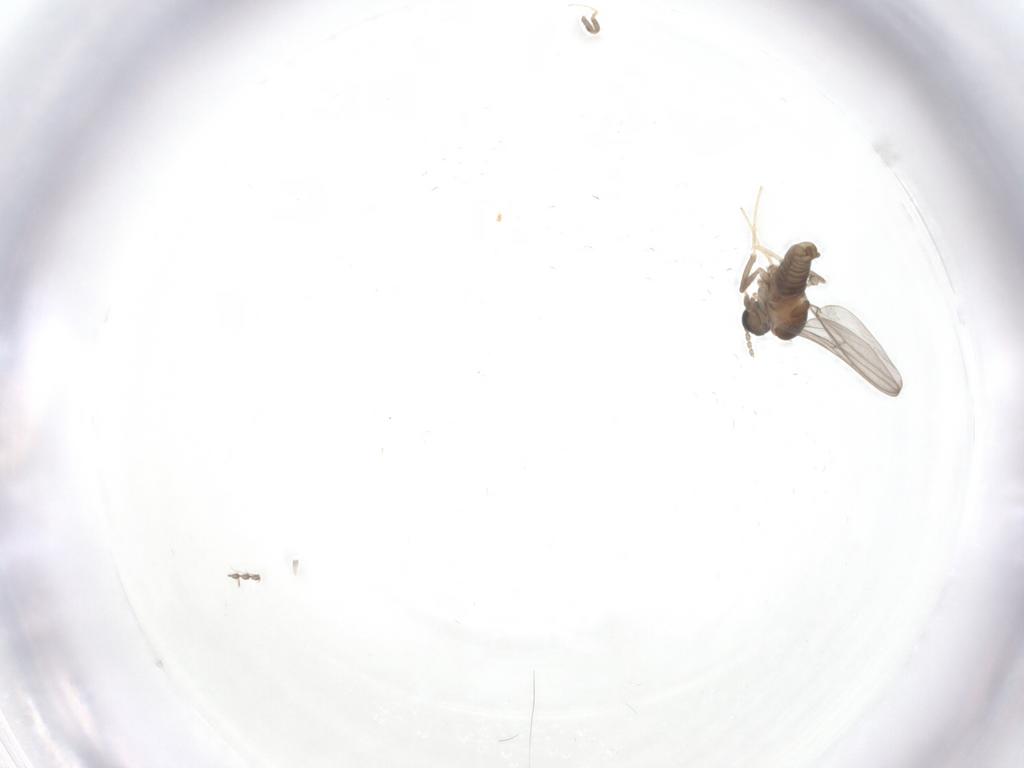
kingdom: Animalia
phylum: Arthropoda
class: Insecta
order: Diptera
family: Cecidomyiidae
